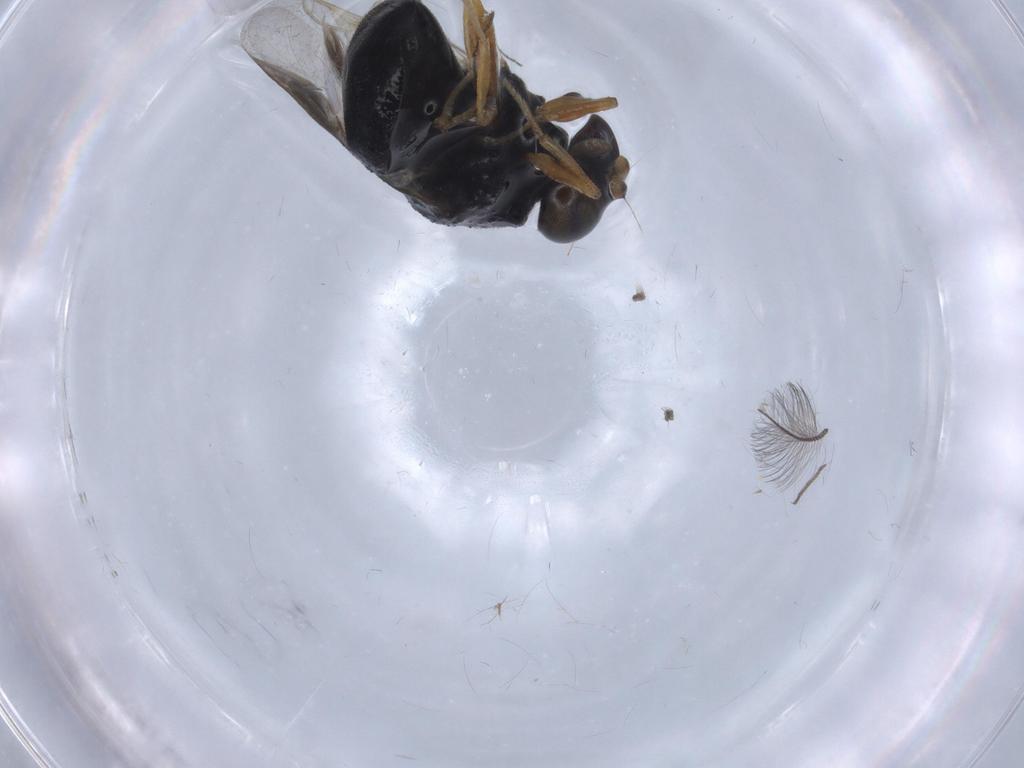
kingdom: Animalia
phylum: Arthropoda
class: Insecta
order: Diptera
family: Stratiomyidae
